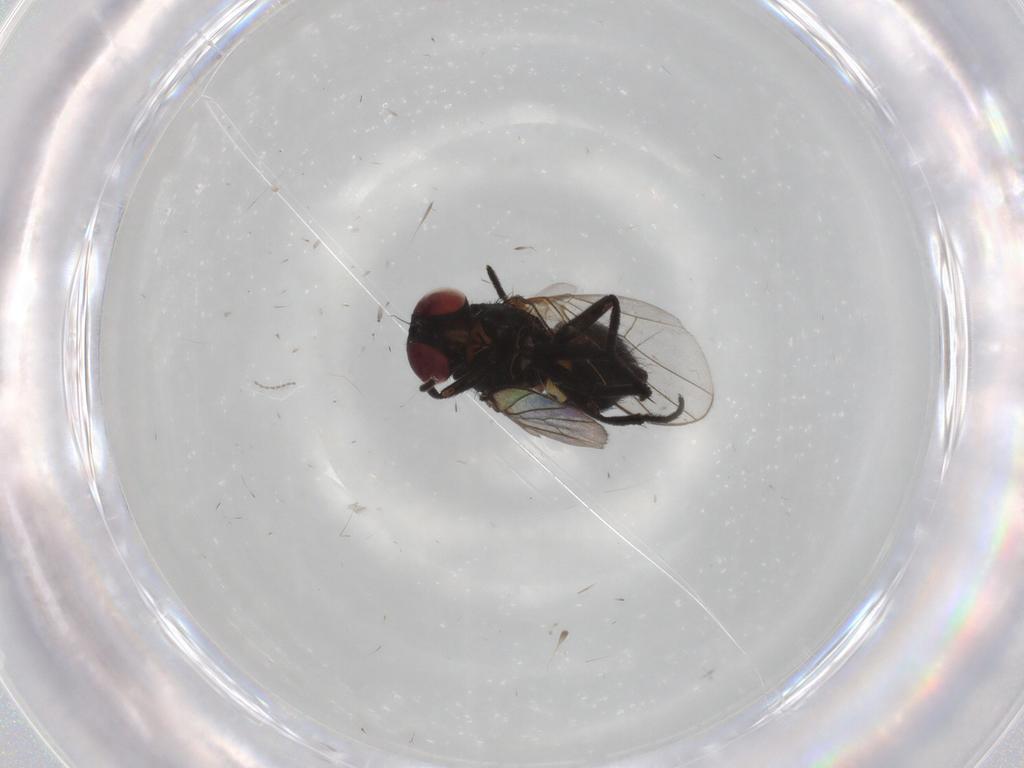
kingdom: Animalia
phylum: Arthropoda
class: Insecta
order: Diptera
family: Agromyzidae
